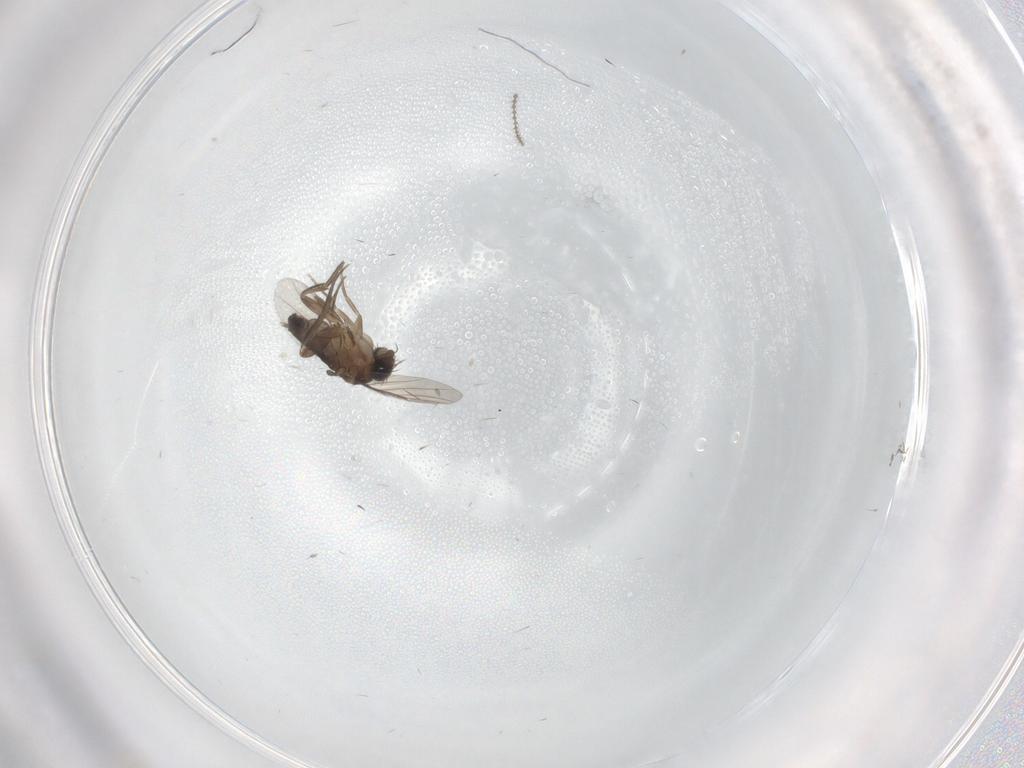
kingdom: Animalia
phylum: Arthropoda
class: Insecta
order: Diptera
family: Phoridae
